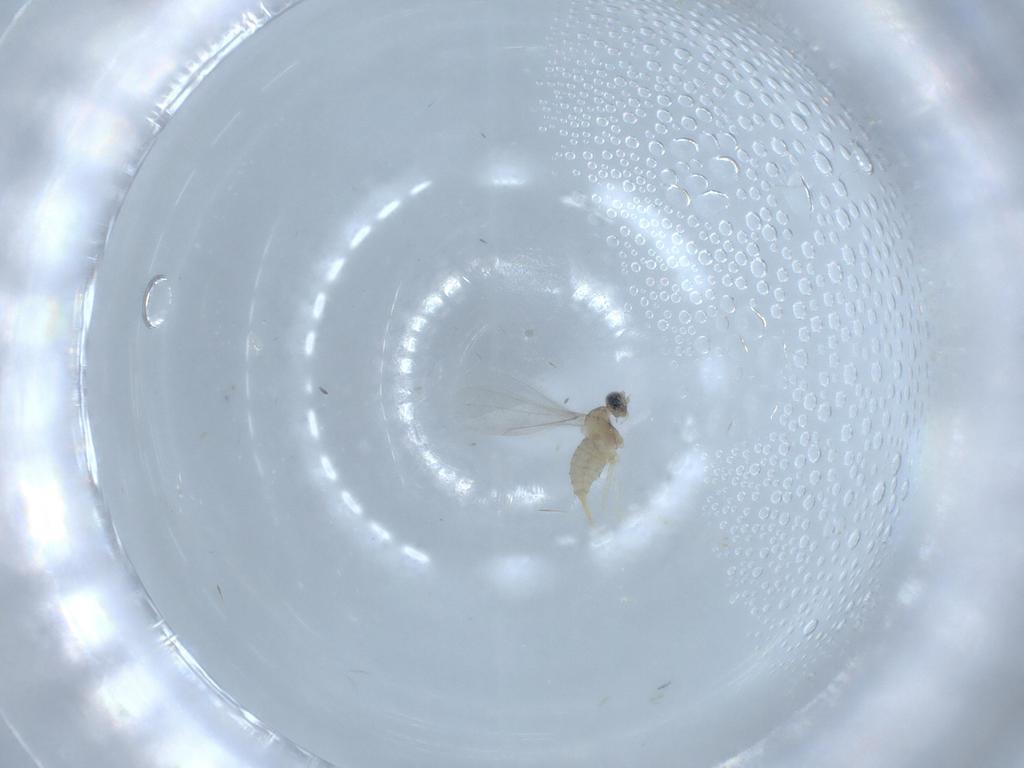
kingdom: Animalia
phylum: Arthropoda
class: Insecta
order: Diptera
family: Cecidomyiidae
